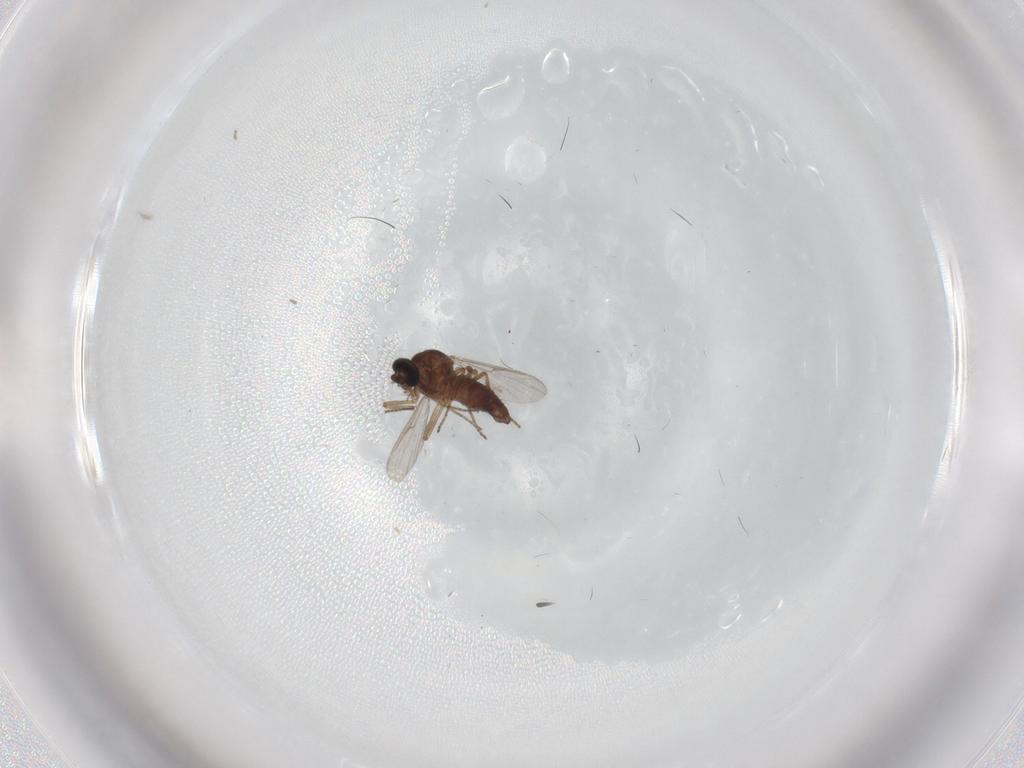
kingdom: Animalia
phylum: Arthropoda
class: Insecta
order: Diptera
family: Ceratopogonidae
